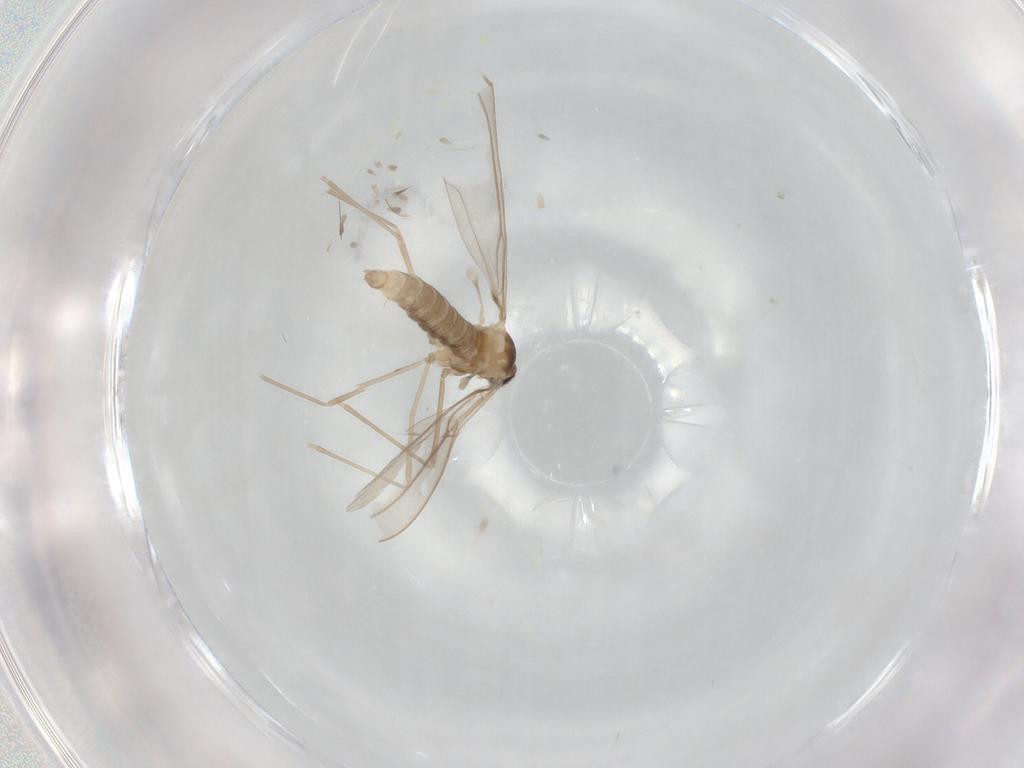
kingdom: Animalia
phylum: Arthropoda
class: Insecta
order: Diptera
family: Cecidomyiidae
